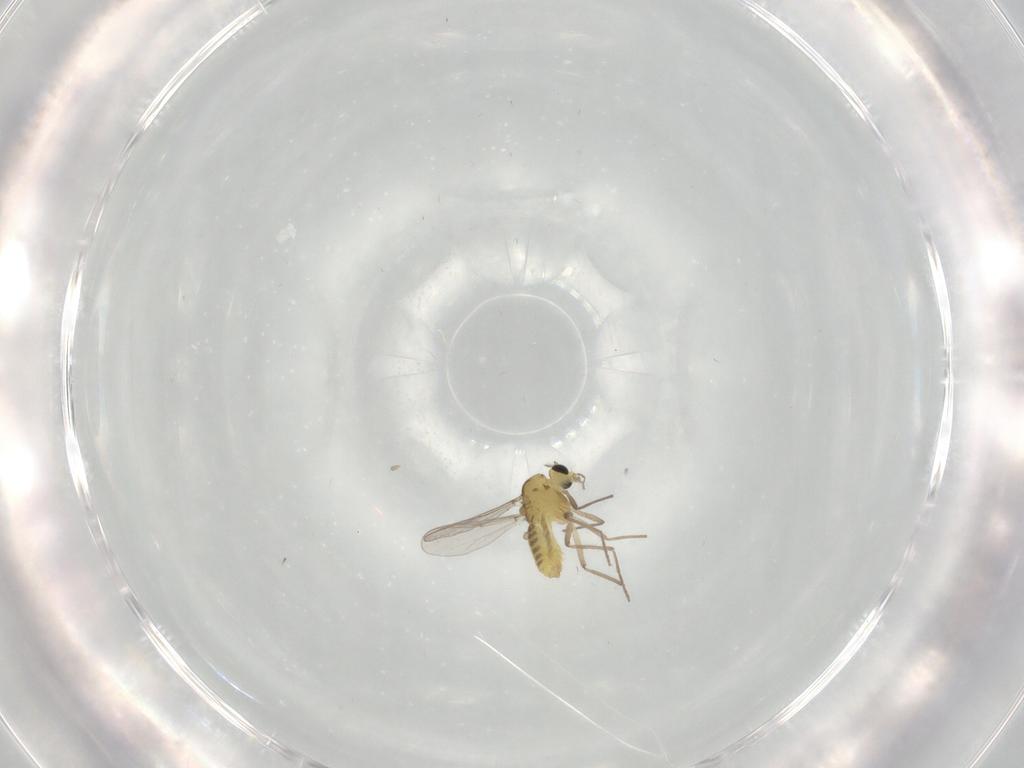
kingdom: Animalia
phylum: Arthropoda
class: Insecta
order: Diptera
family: Chironomidae
